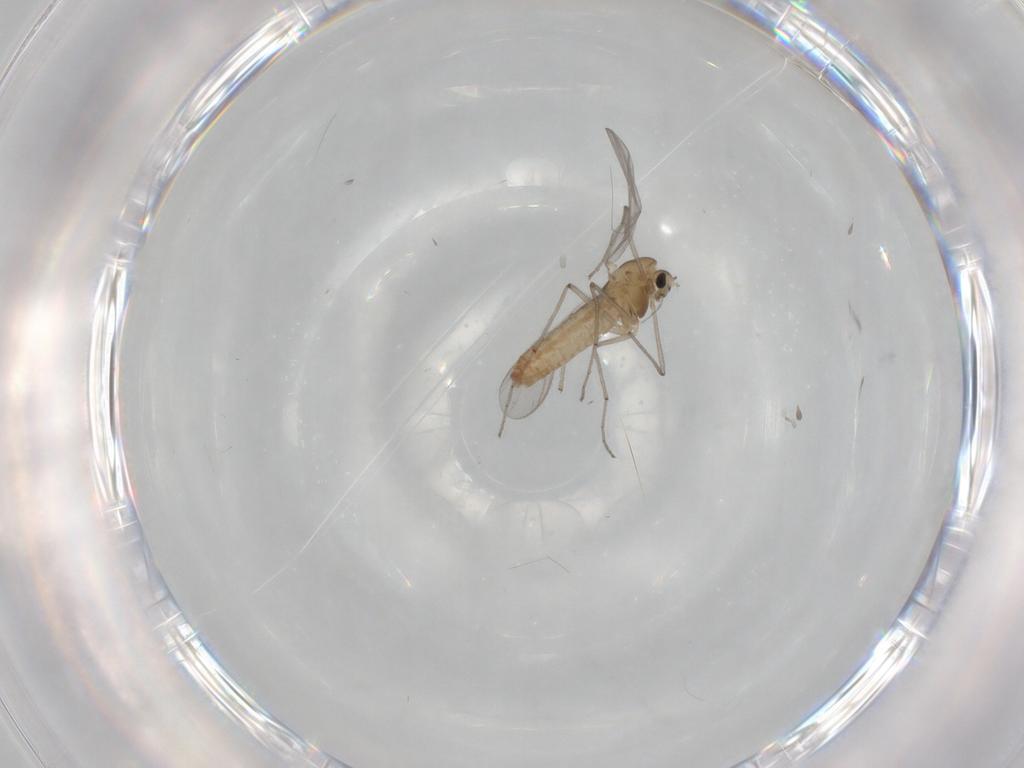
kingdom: Animalia
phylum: Arthropoda
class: Insecta
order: Diptera
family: Chironomidae
